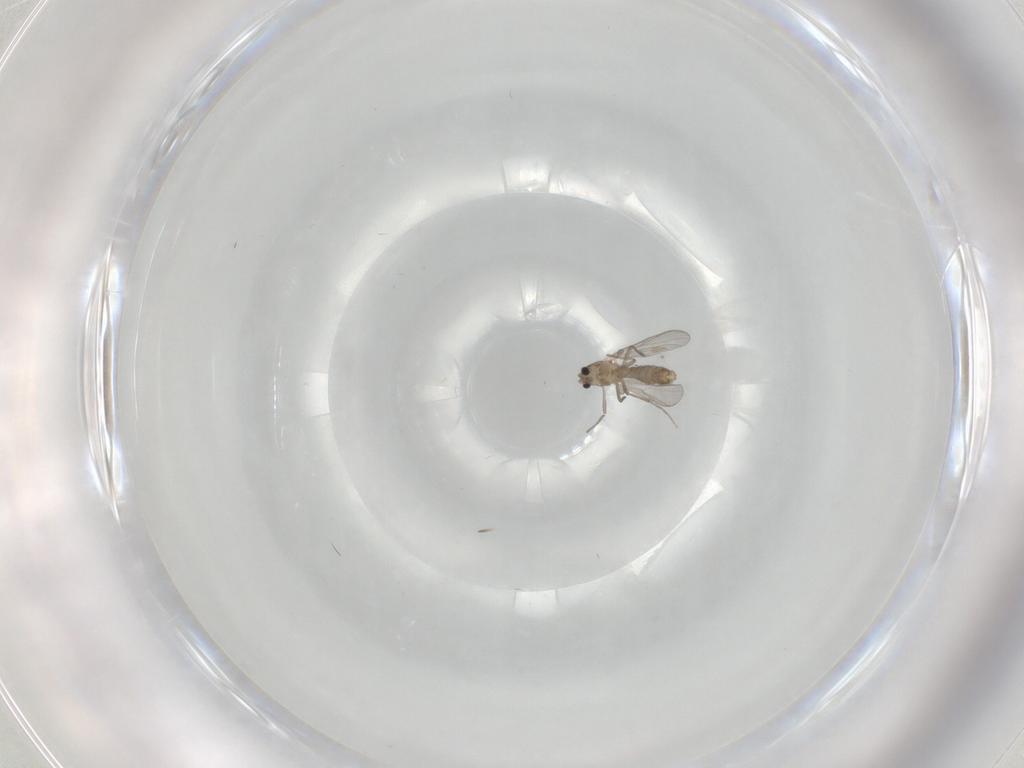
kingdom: Animalia
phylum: Arthropoda
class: Insecta
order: Diptera
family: Chironomidae
